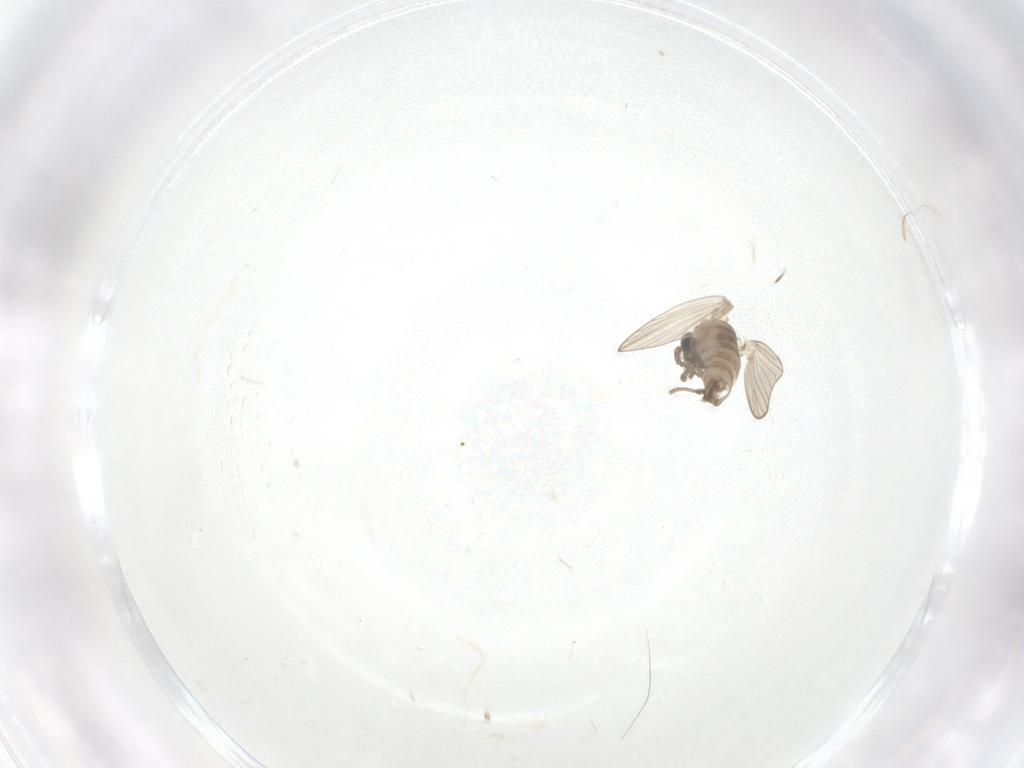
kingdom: Animalia
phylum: Arthropoda
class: Insecta
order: Diptera
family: Psychodidae
